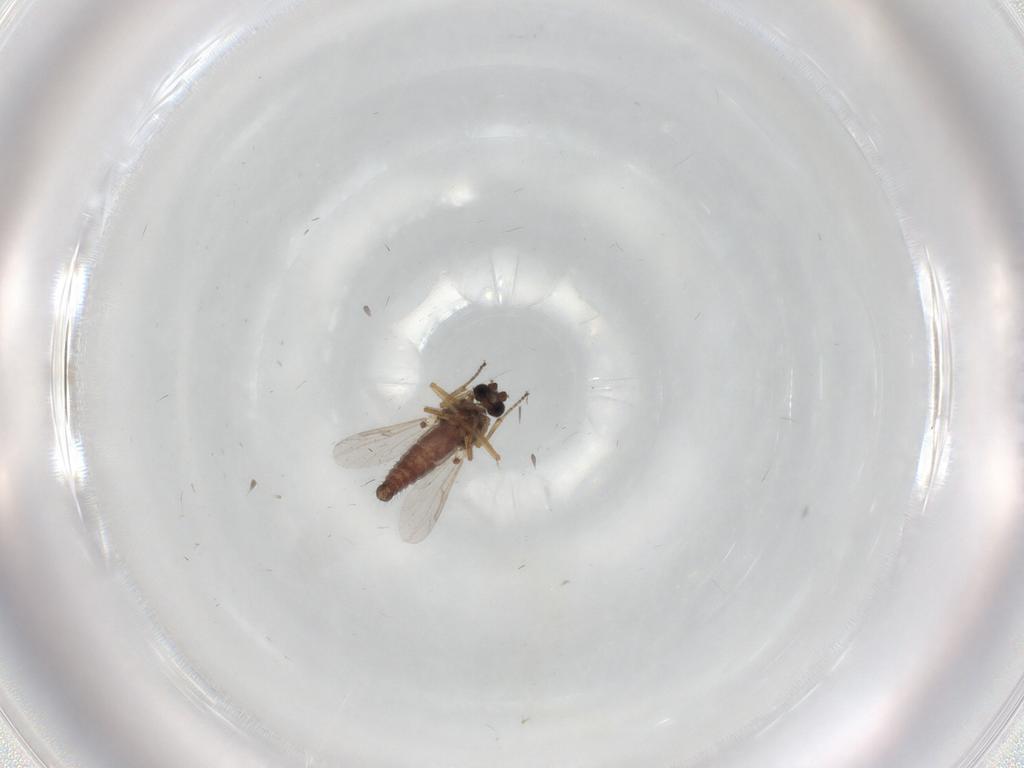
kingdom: Animalia
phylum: Arthropoda
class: Insecta
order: Diptera
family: Ceratopogonidae
